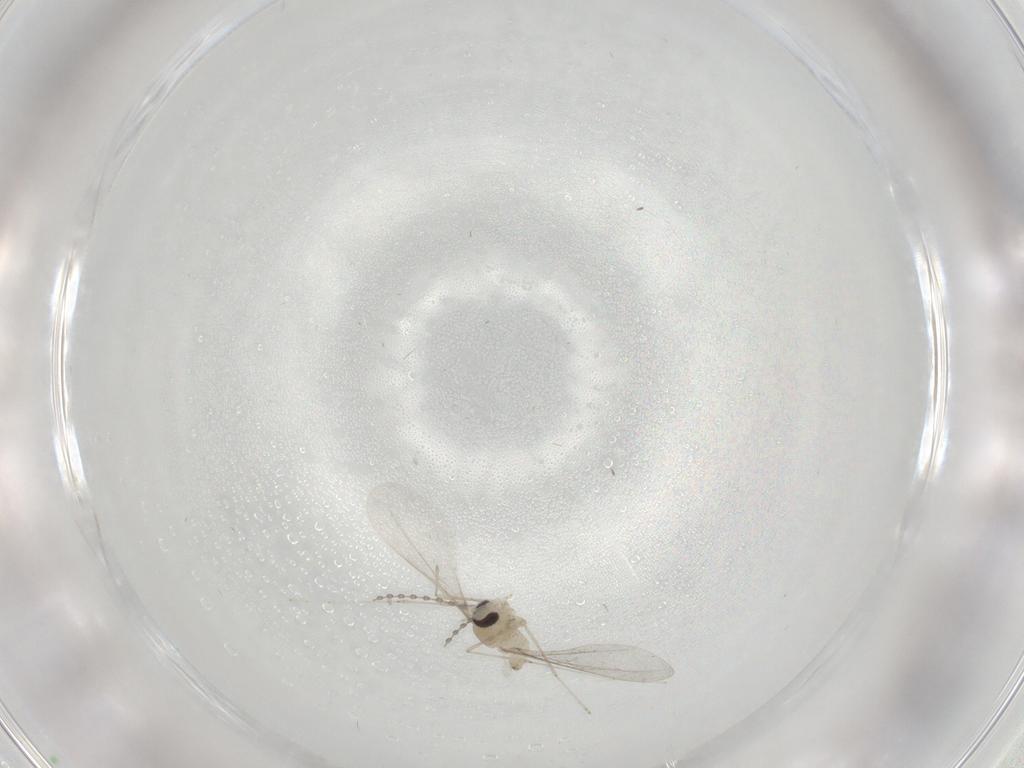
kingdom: Animalia
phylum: Arthropoda
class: Insecta
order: Diptera
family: Cecidomyiidae
